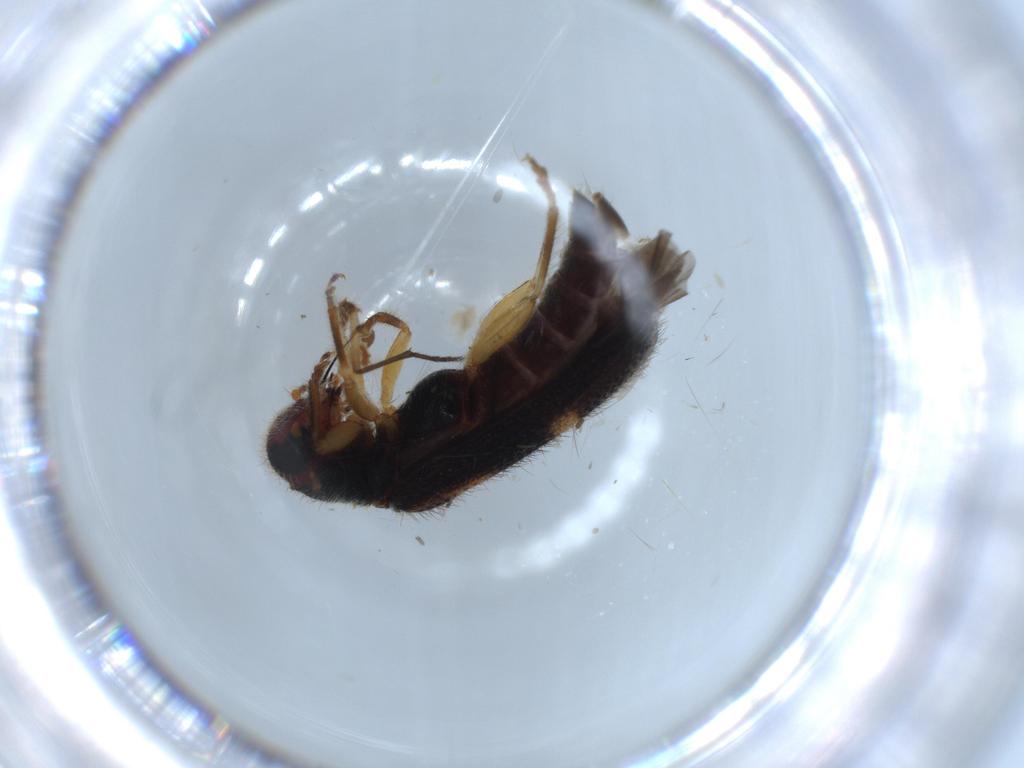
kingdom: Animalia
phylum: Arthropoda
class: Insecta
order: Coleoptera
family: Cleridae
